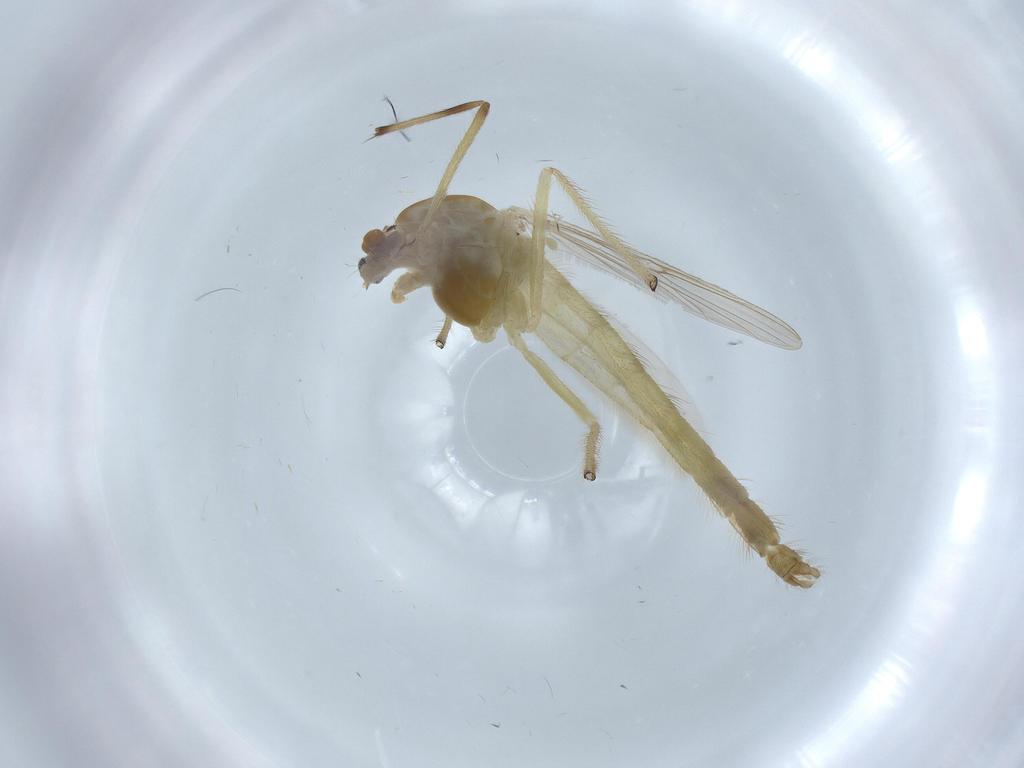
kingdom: Animalia
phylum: Arthropoda
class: Insecta
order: Diptera
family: Chironomidae
